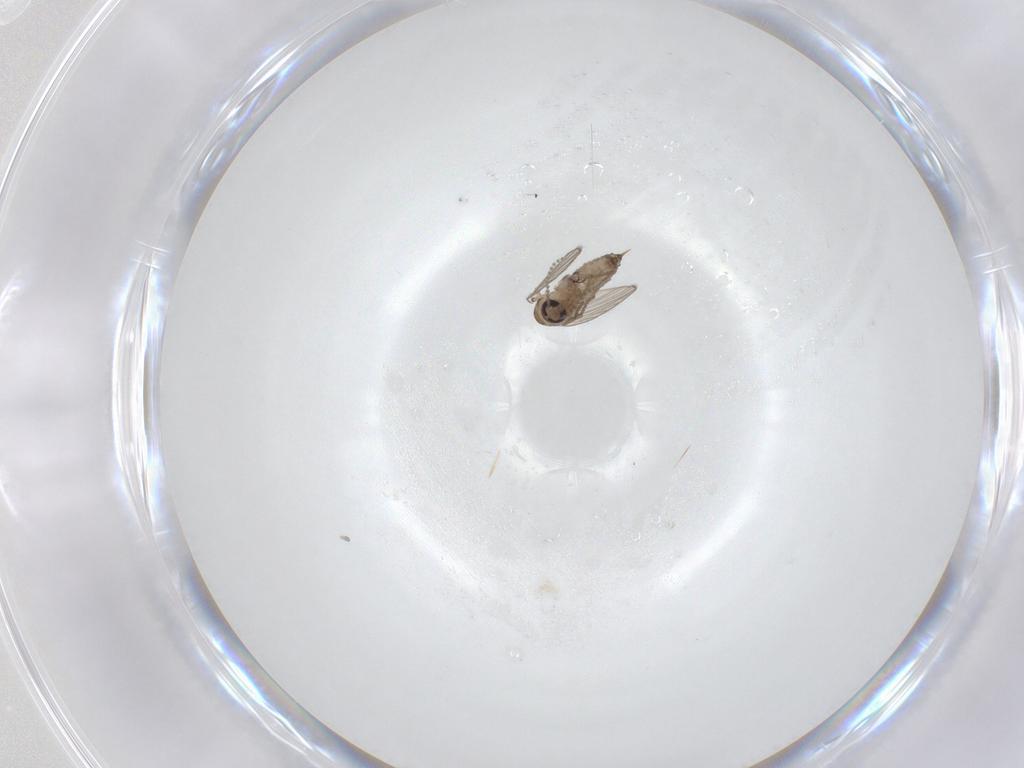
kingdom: Animalia
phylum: Arthropoda
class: Insecta
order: Diptera
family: Psychodidae
